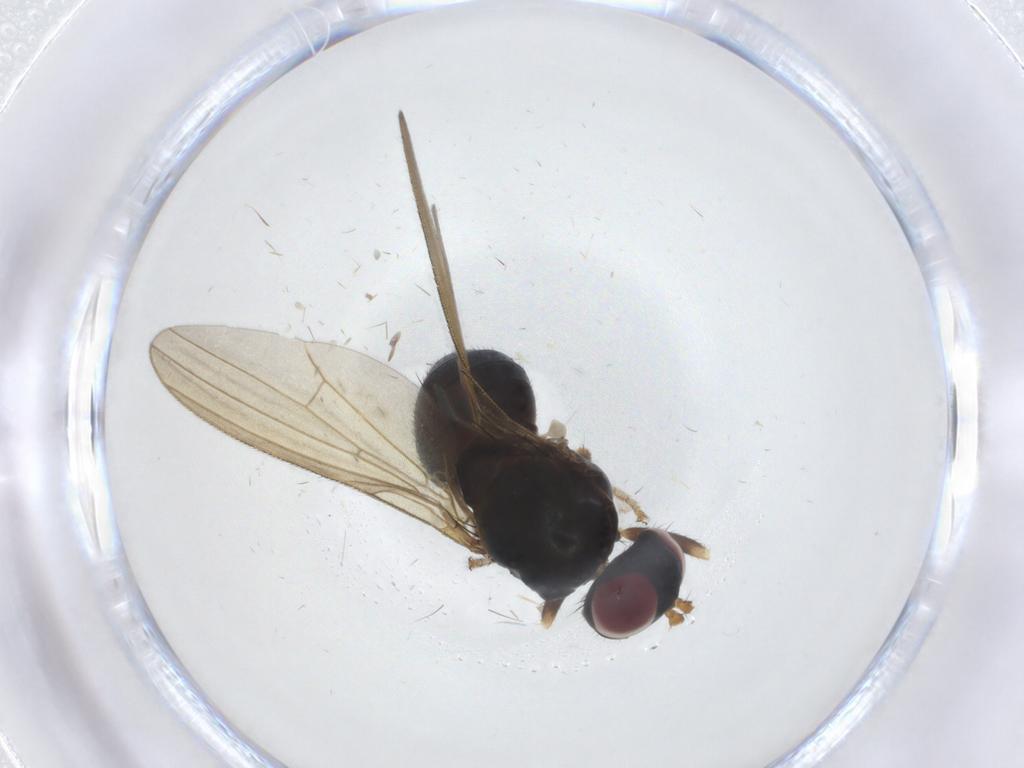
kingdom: Animalia
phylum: Arthropoda
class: Insecta
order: Diptera
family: Lauxaniidae
